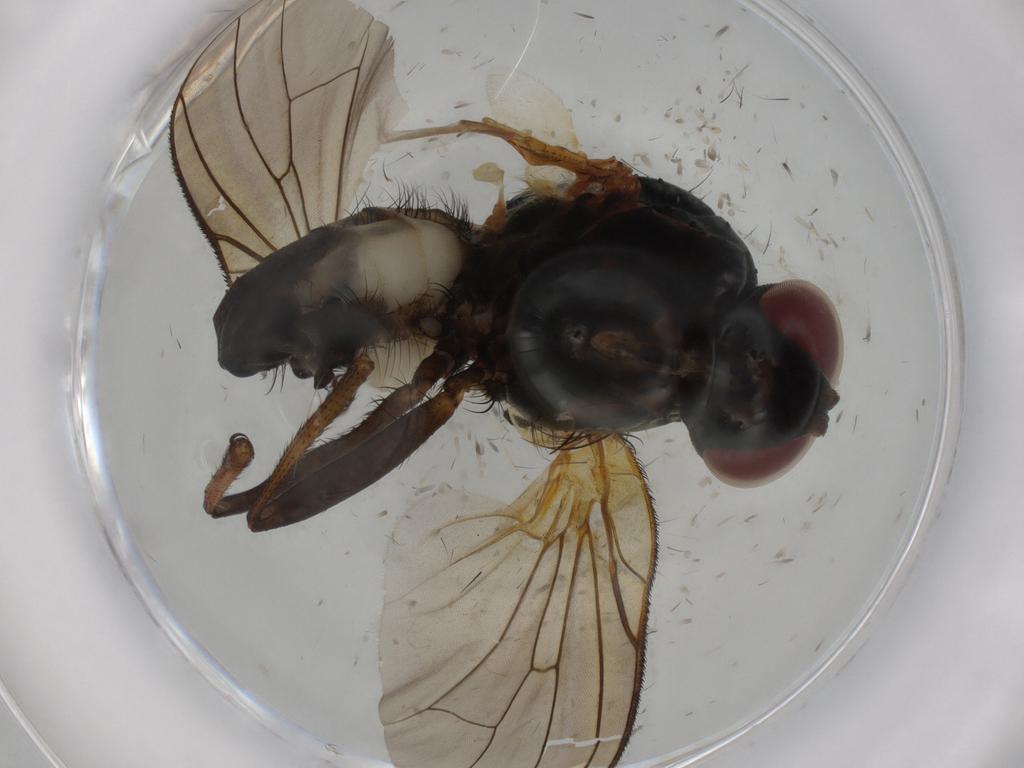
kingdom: Animalia
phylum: Arthropoda
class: Insecta
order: Diptera
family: Anthomyiidae
